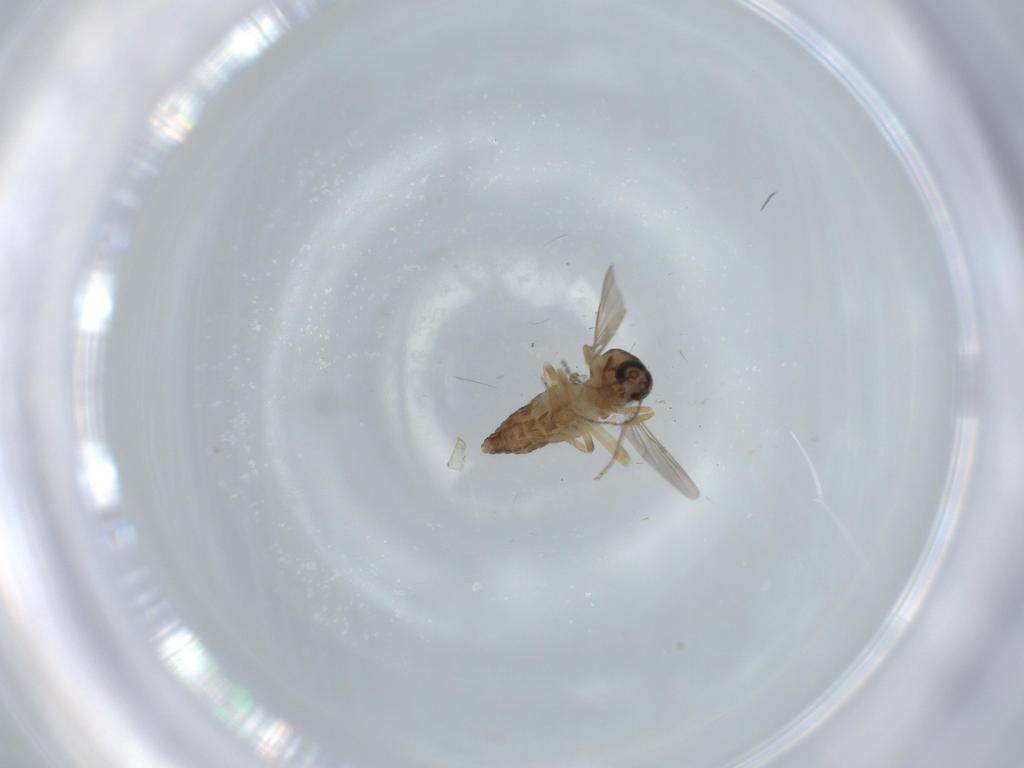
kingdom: Animalia
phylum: Arthropoda
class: Insecta
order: Diptera
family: Ceratopogonidae
